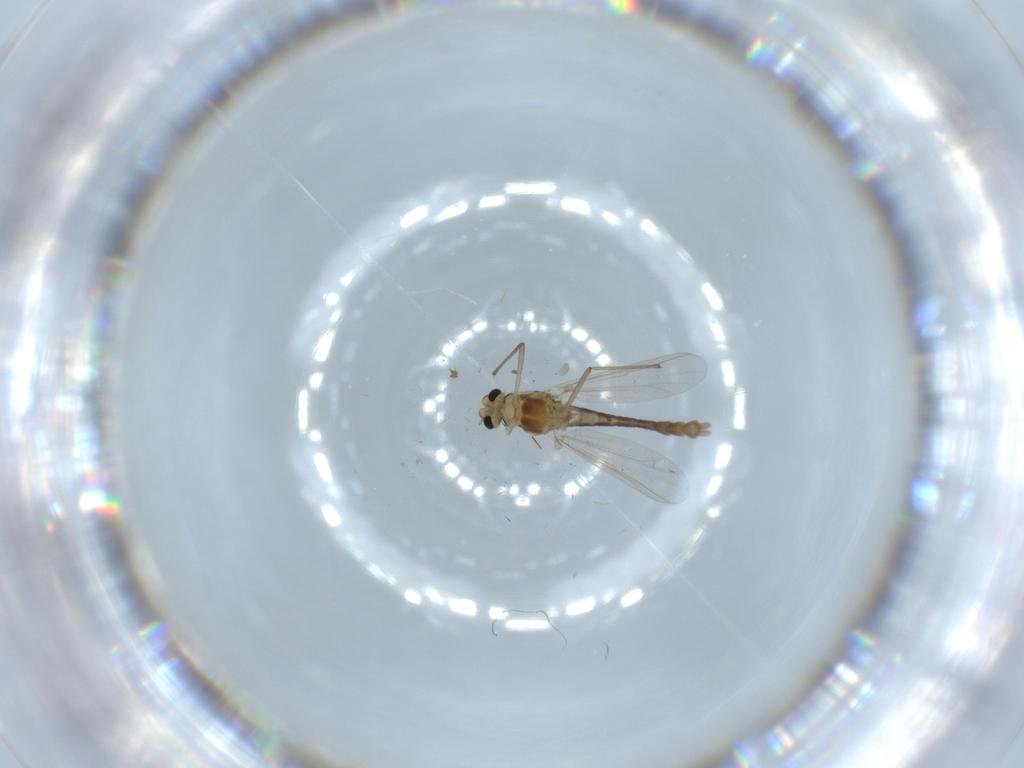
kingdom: Animalia
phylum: Arthropoda
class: Insecta
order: Diptera
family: Chironomidae
